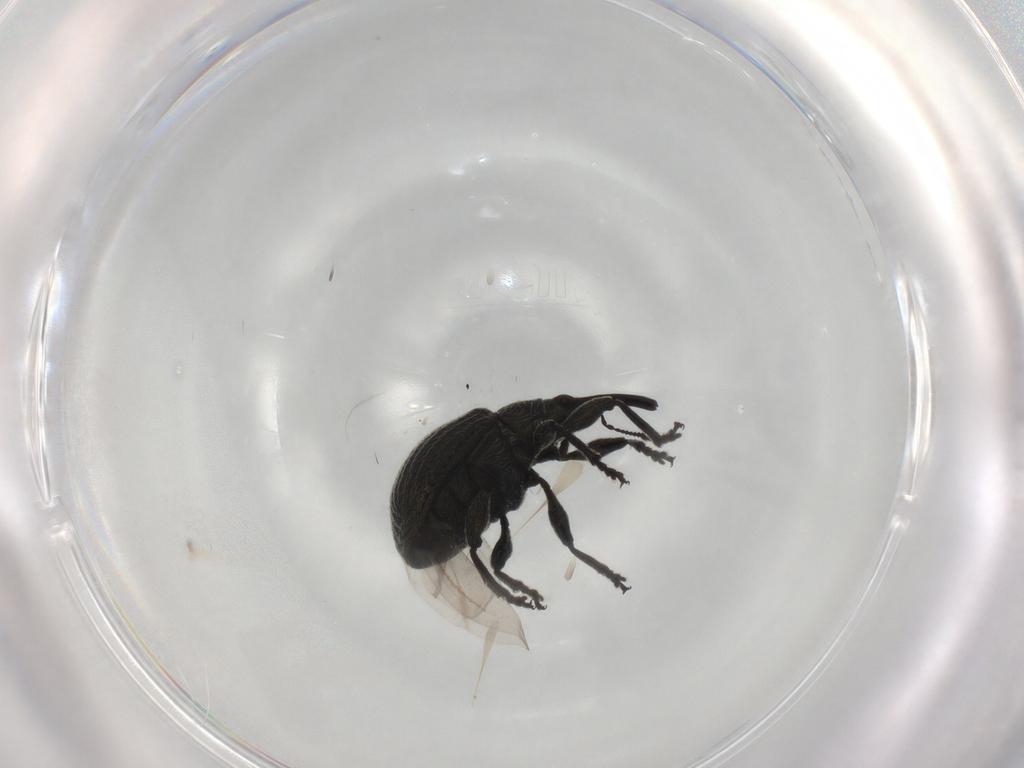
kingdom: Animalia
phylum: Arthropoda
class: Insecta
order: Coleoptera
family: Brentidae
